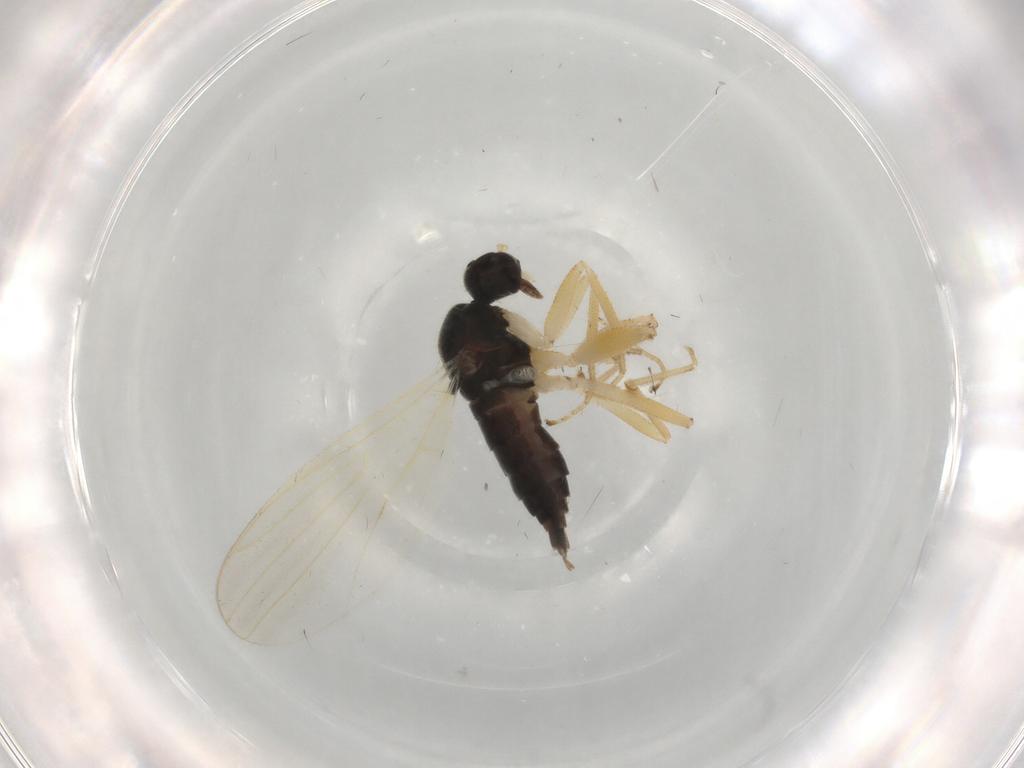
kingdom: Animalia
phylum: Arthropoda
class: Insecta
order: Diptera
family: Hybotidae
